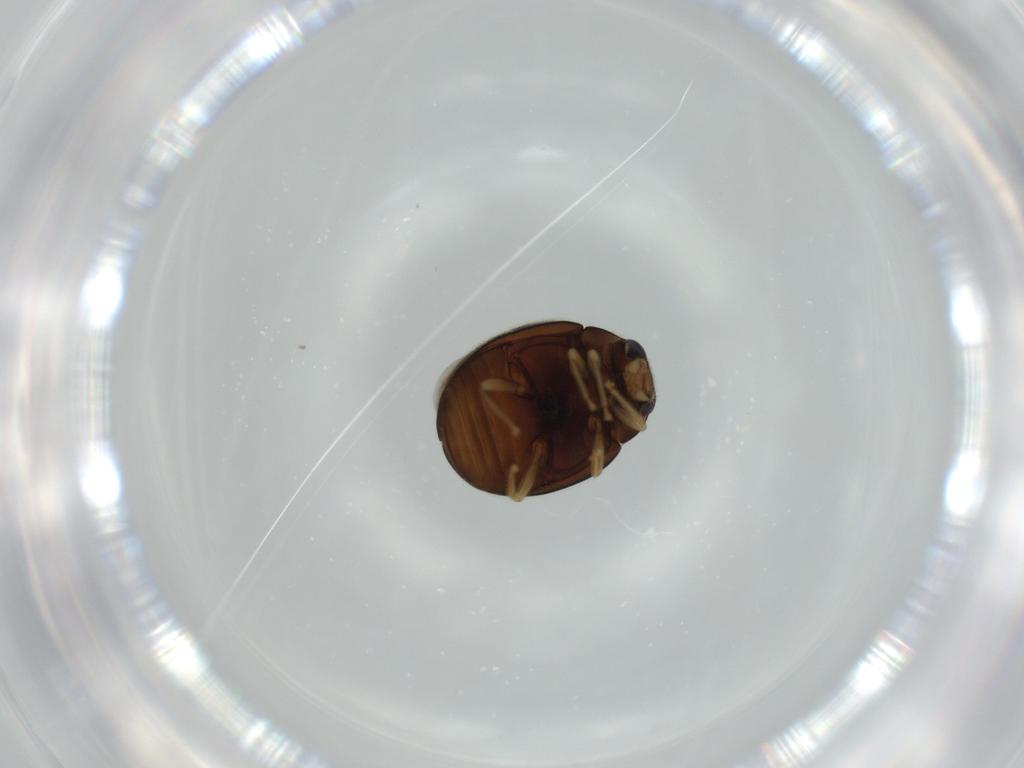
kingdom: Animalia
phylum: Arthropoda
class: Insecta
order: Coleoptera
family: Coccinellidae
